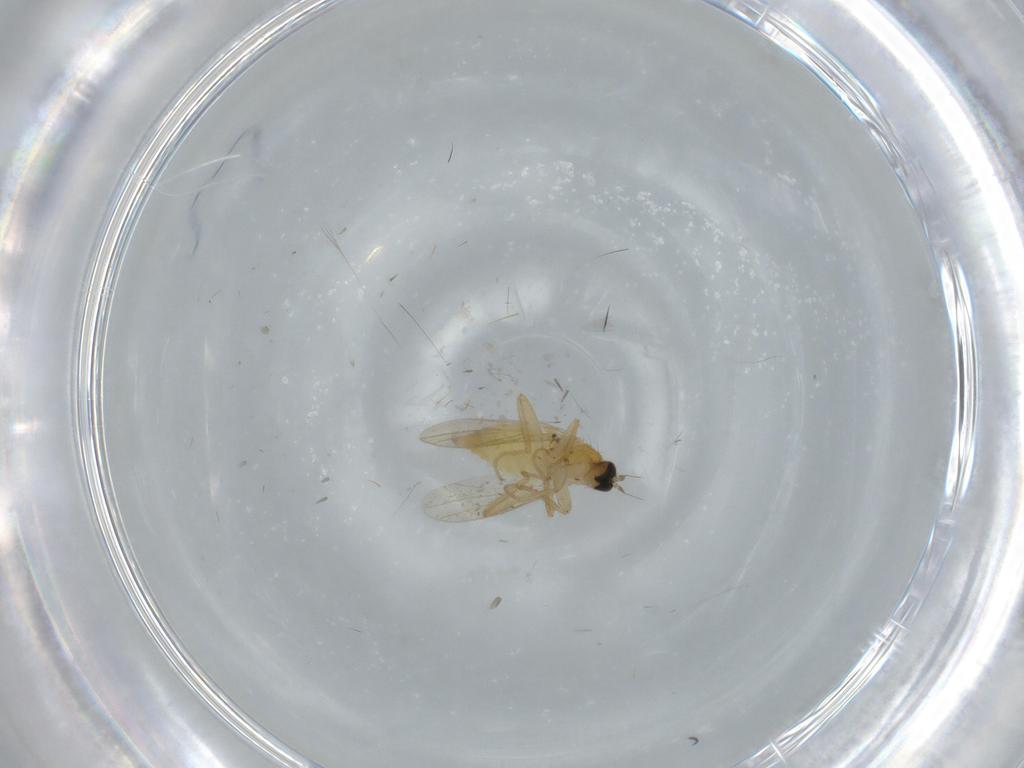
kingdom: Animalia
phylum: Arthropoda
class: Insecta
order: Diptera
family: Hybotidae
